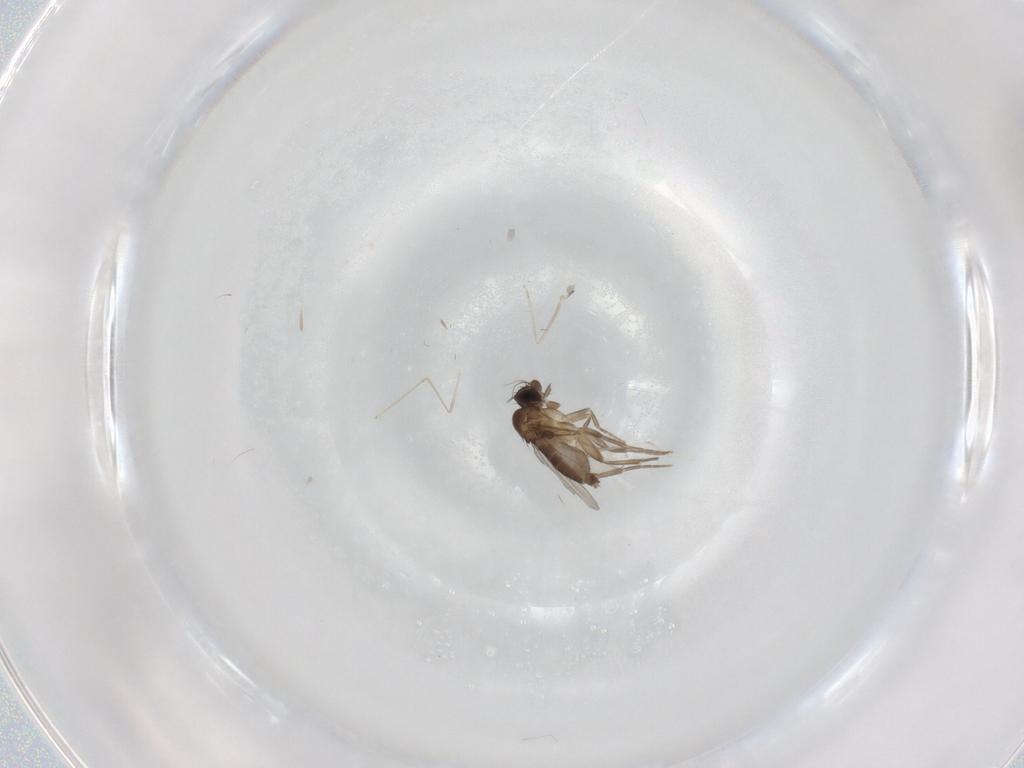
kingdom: Animalia
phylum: Arthropoda
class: Insecta
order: Diptera
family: Phoridae
